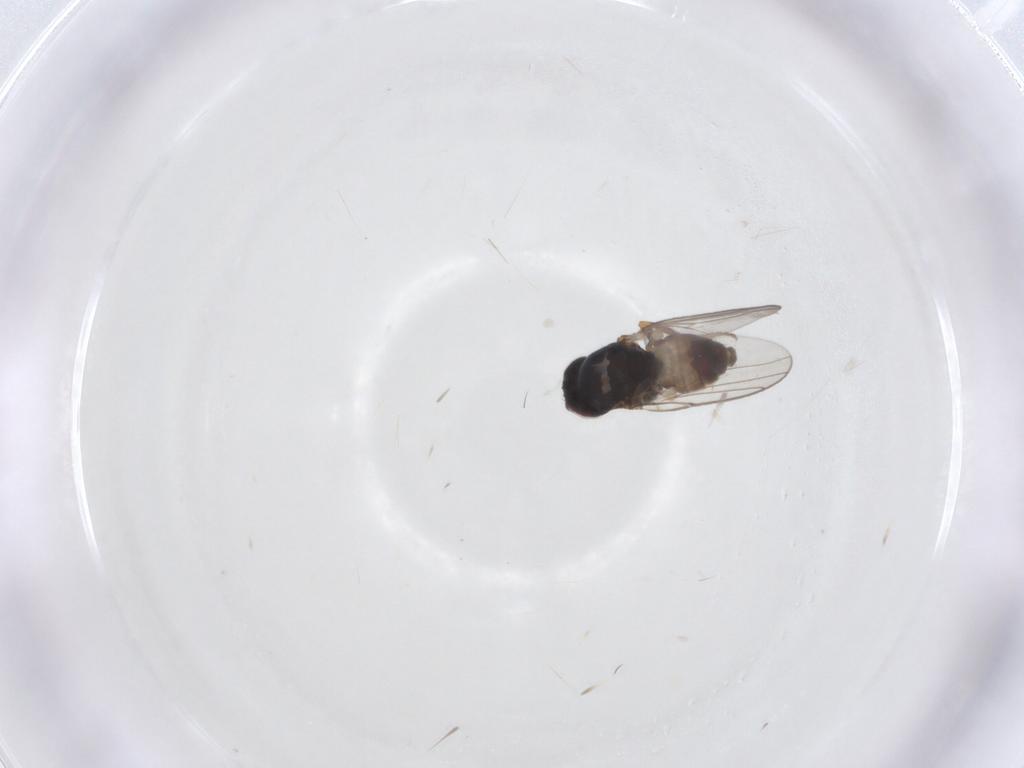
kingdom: Animalia
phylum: Arthropoda
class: Insecta
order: Diptera
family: Chloropidae
